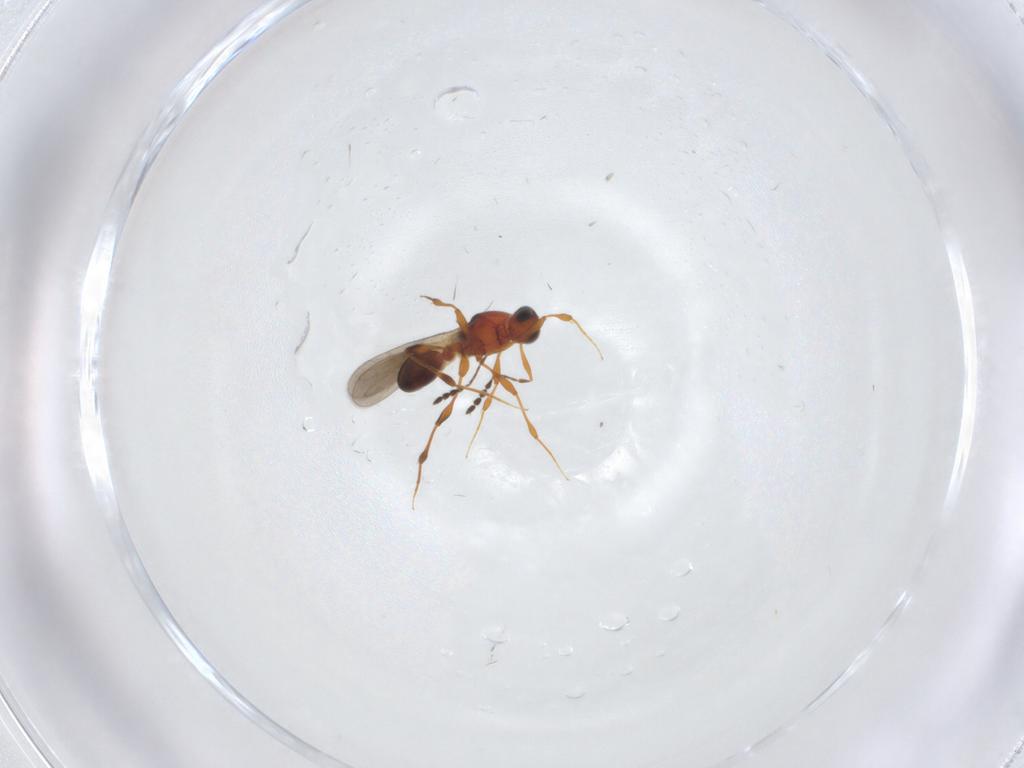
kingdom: Animalia
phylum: Arthropoda
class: Insecta
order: Hymenoptera
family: Platygastridae
